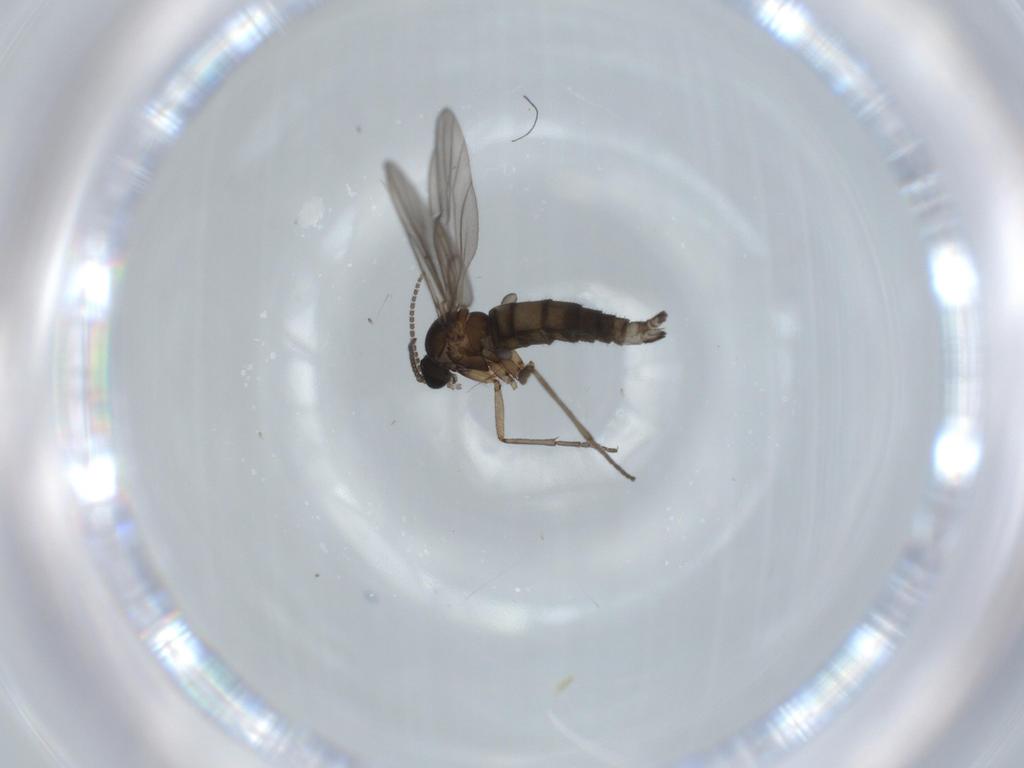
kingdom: Animalia
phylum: Arthropoda
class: Insecta
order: Diptera
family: Sciaridae
